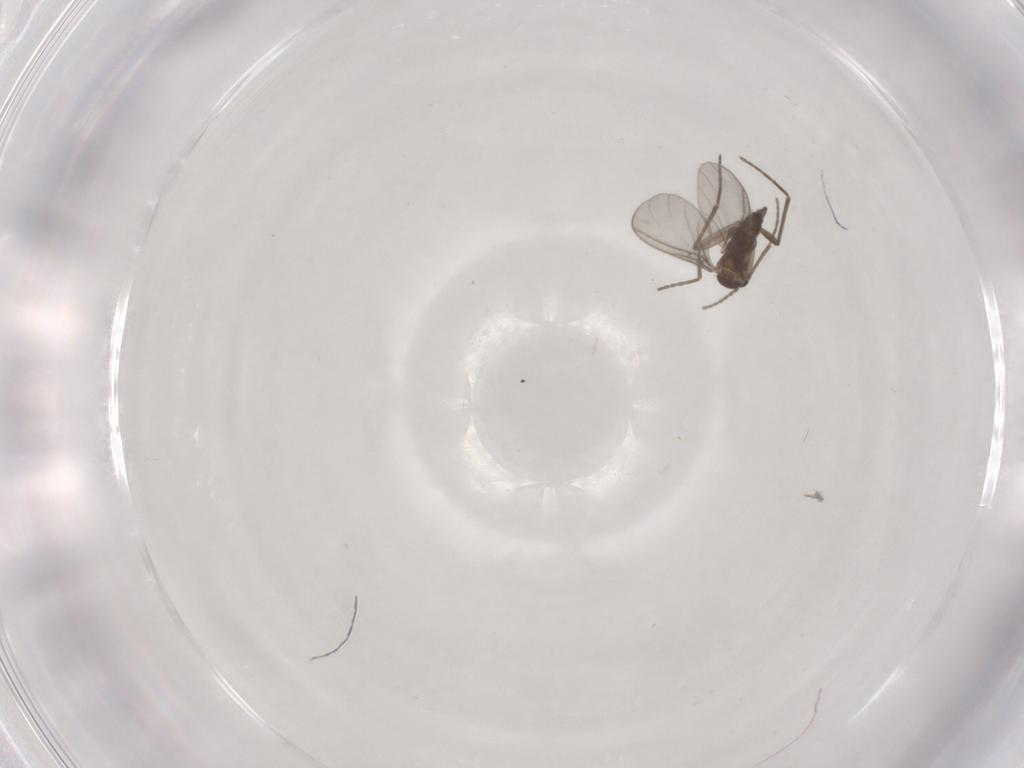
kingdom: Animalia
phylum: Arthropoda
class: Insecta
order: Diptera
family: Sciaridae
